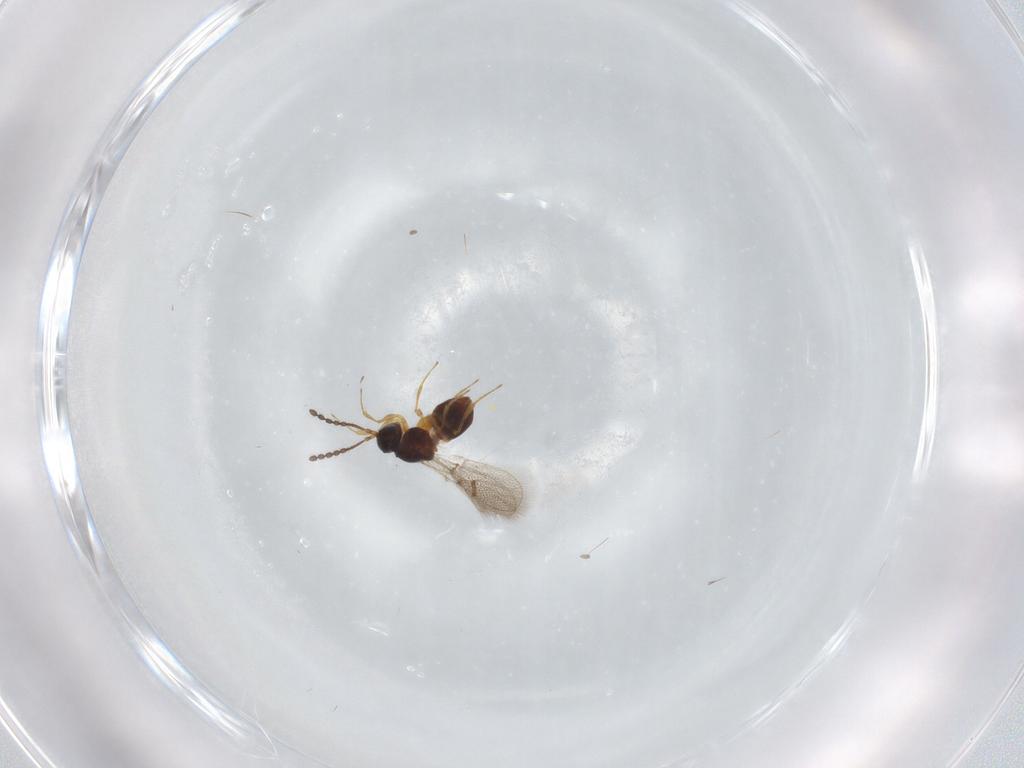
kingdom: Animalia
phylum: Arthropoda
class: Insecta
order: Hymenoptera
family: Figitidae
